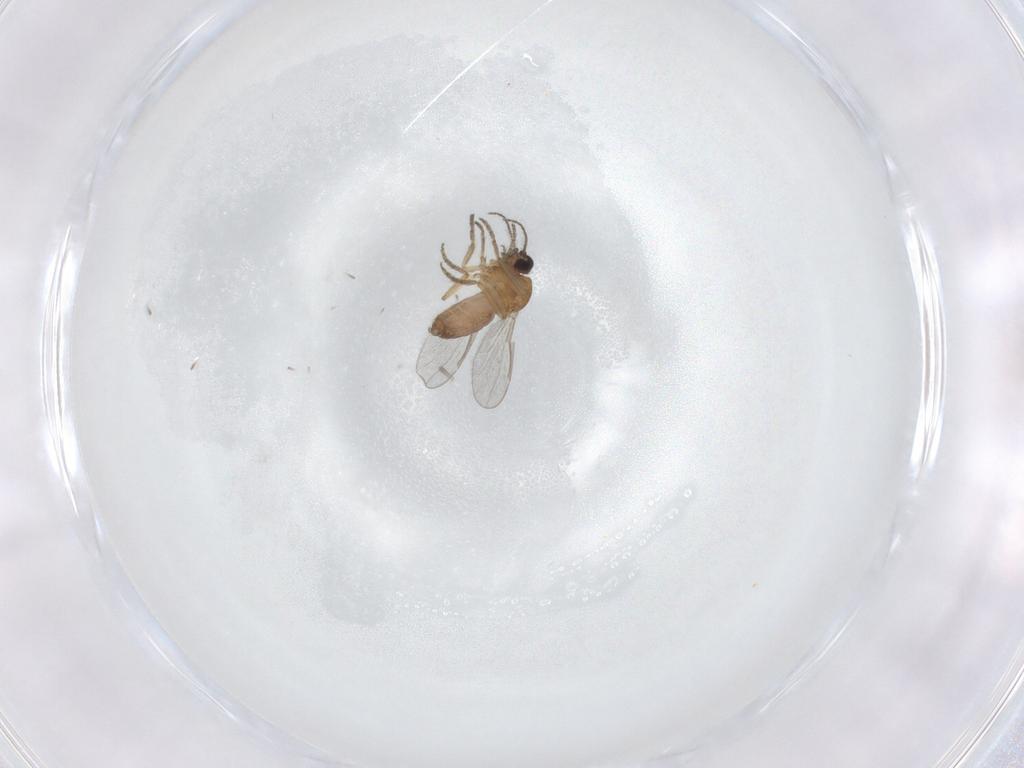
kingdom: Animalia
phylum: Arthropoda
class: Insecta
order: Diptera
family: Ceratopogonidae
